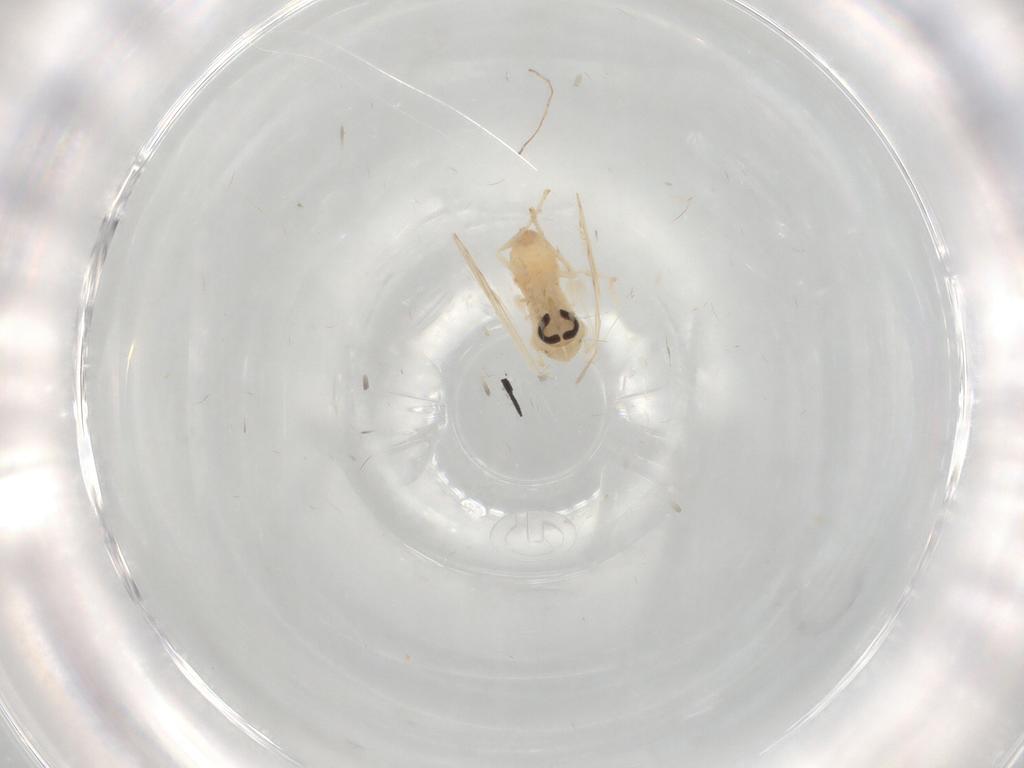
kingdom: Animalia
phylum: Arthropoda
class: Insecta
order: Diptera
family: Psychodidae
